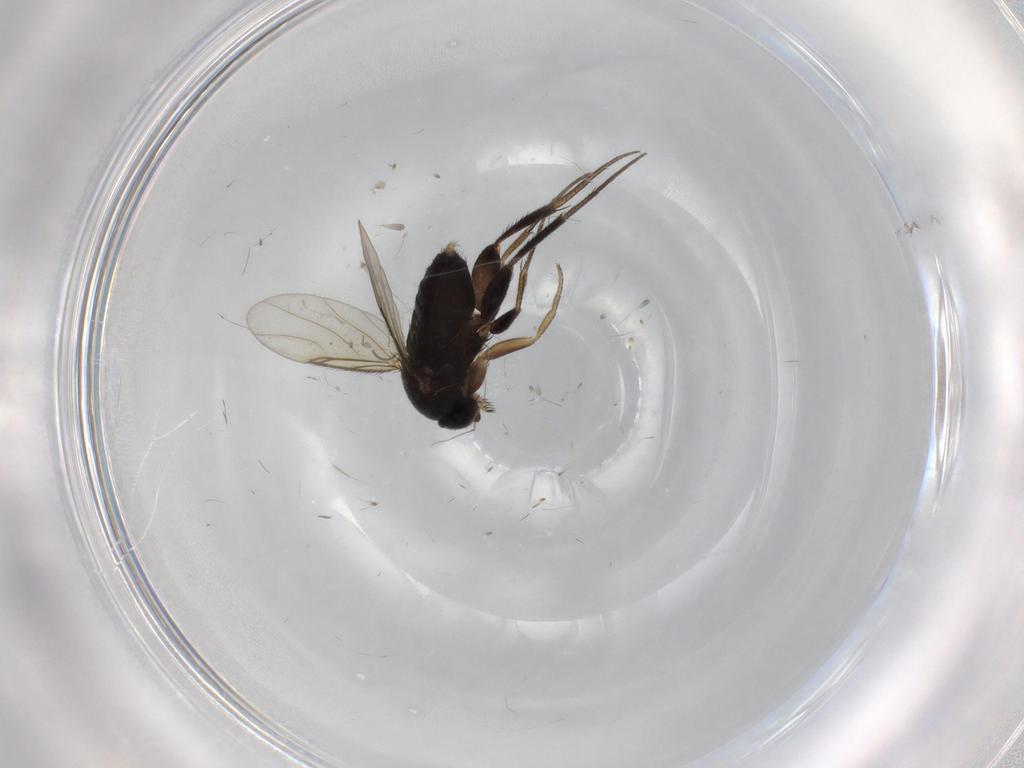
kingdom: Animalia
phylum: Arthropoda
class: Insecta
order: Diptera
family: Phoridae
